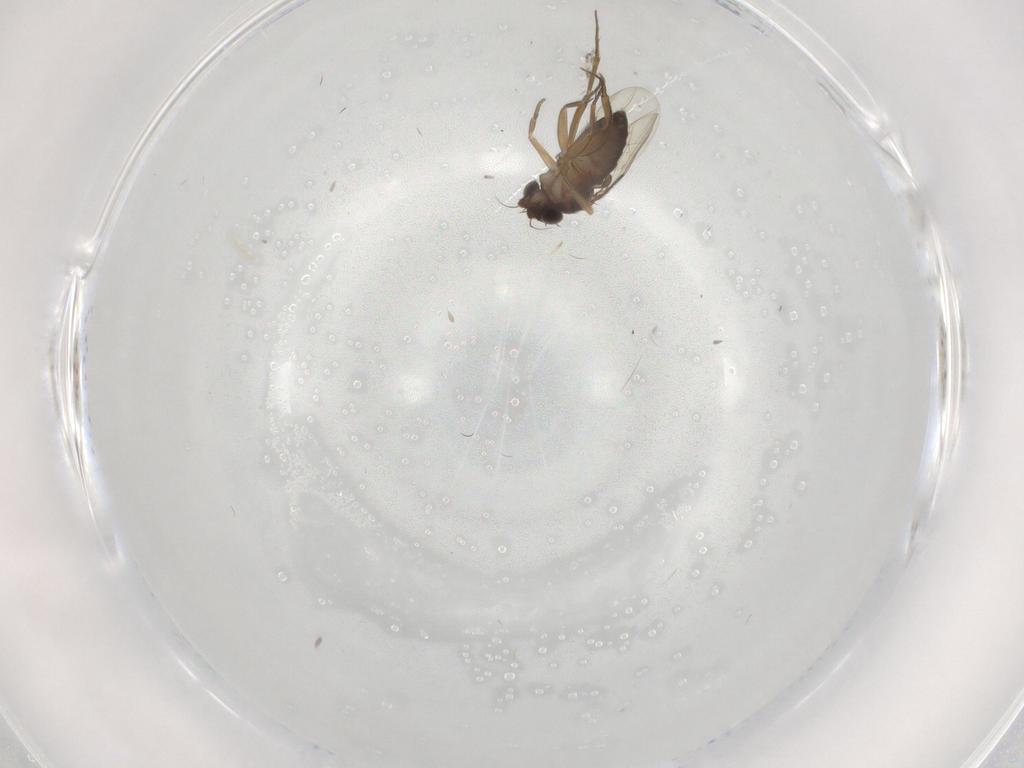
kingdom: Animalia
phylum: Arthropoda
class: Insecta
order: Diptera
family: Phoridae
